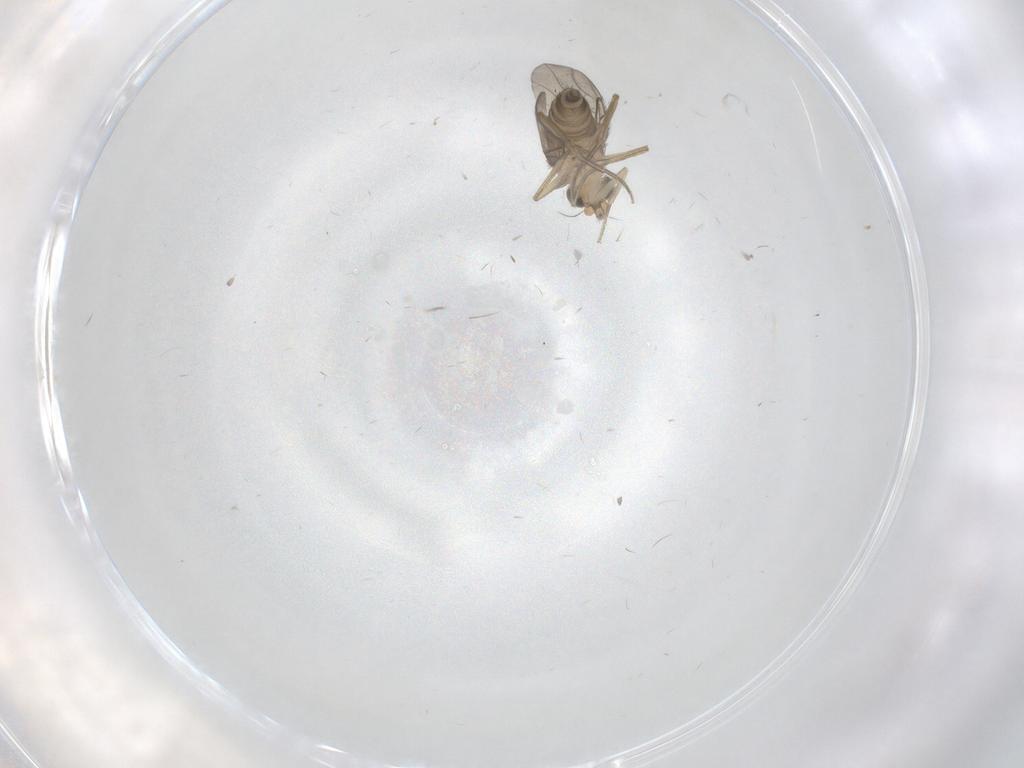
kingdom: Animalia
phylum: Arthropoda
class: Insecta
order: Diptera
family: Phoridae
